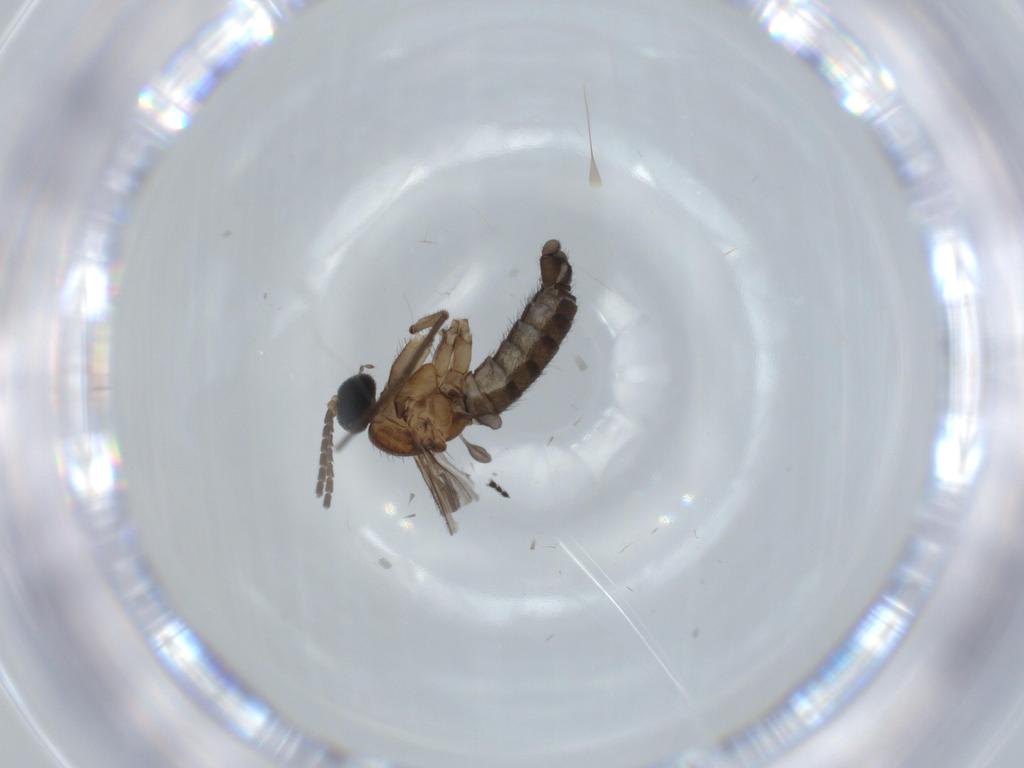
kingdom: Animalia
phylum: Arthropoda
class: Insecta
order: Diptera
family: Sciaridae
